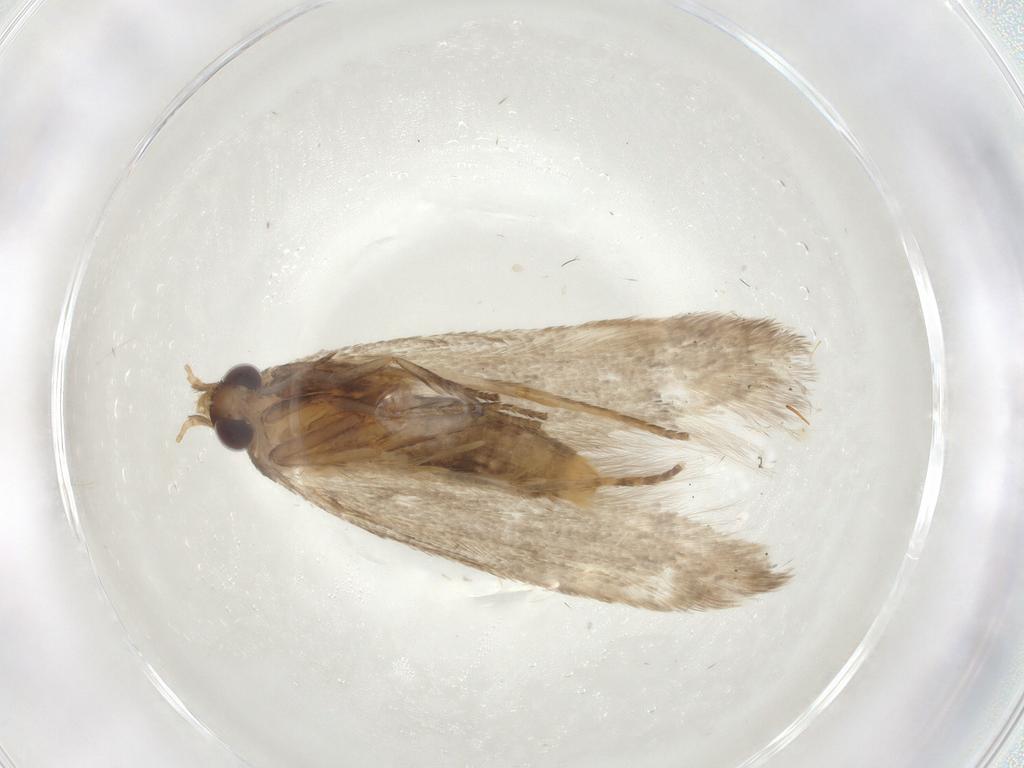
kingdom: Animalia
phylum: Arthropoda
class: Insecta
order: Lepidoptera
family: Coleophoridae
